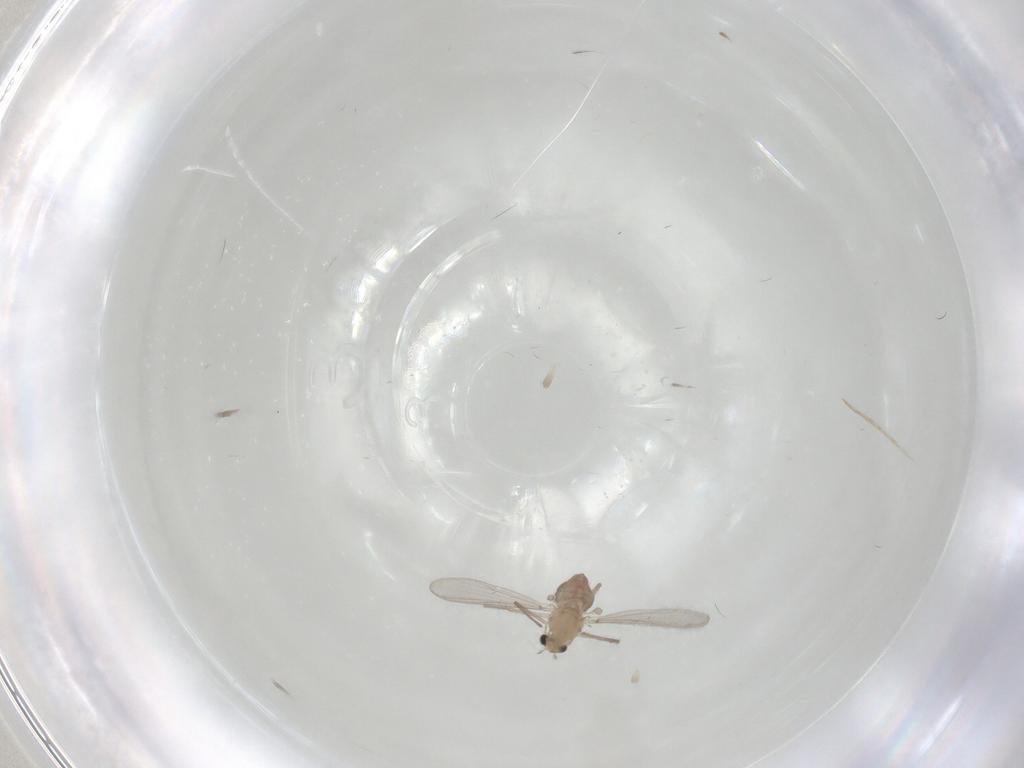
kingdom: Animalia
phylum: Arthropoda
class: Insecta
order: Diptera
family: Chironomidae
